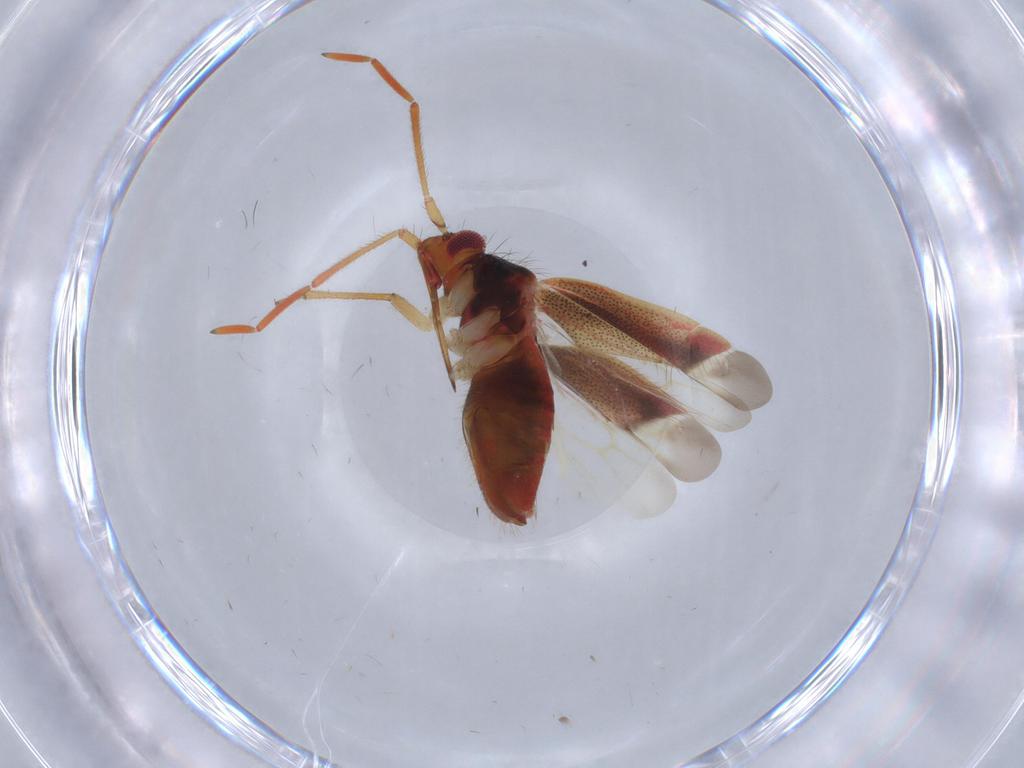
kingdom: Animalia
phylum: Arthropoda
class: Insecta
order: Hemiptera
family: Miridae
